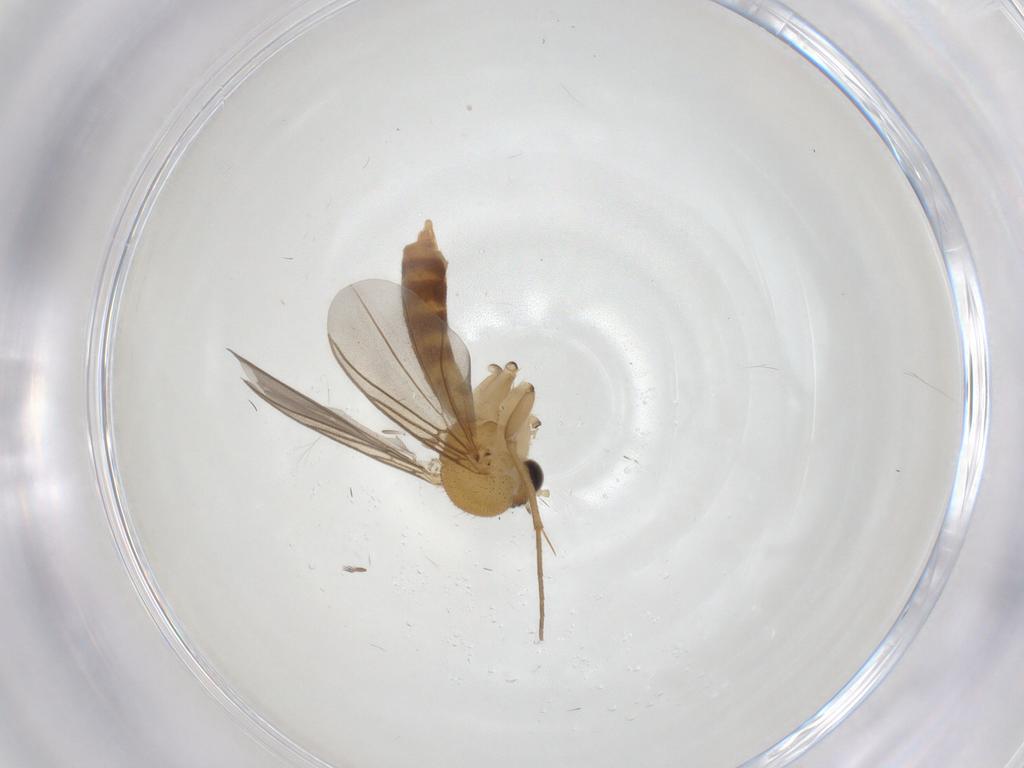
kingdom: Animalia
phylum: Arthropoda
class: Insecta
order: Diptera
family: Mycetophilidae
